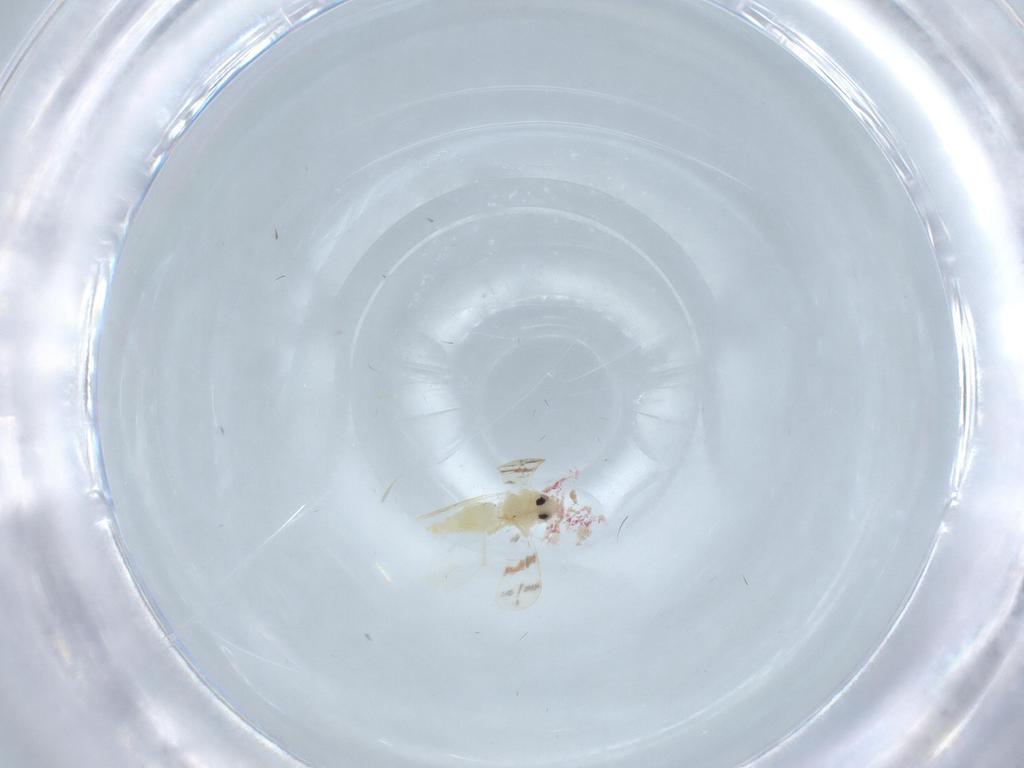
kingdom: Animalia
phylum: Arthropoda
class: Insecta
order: Hemiptera
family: Aleyrodidae
